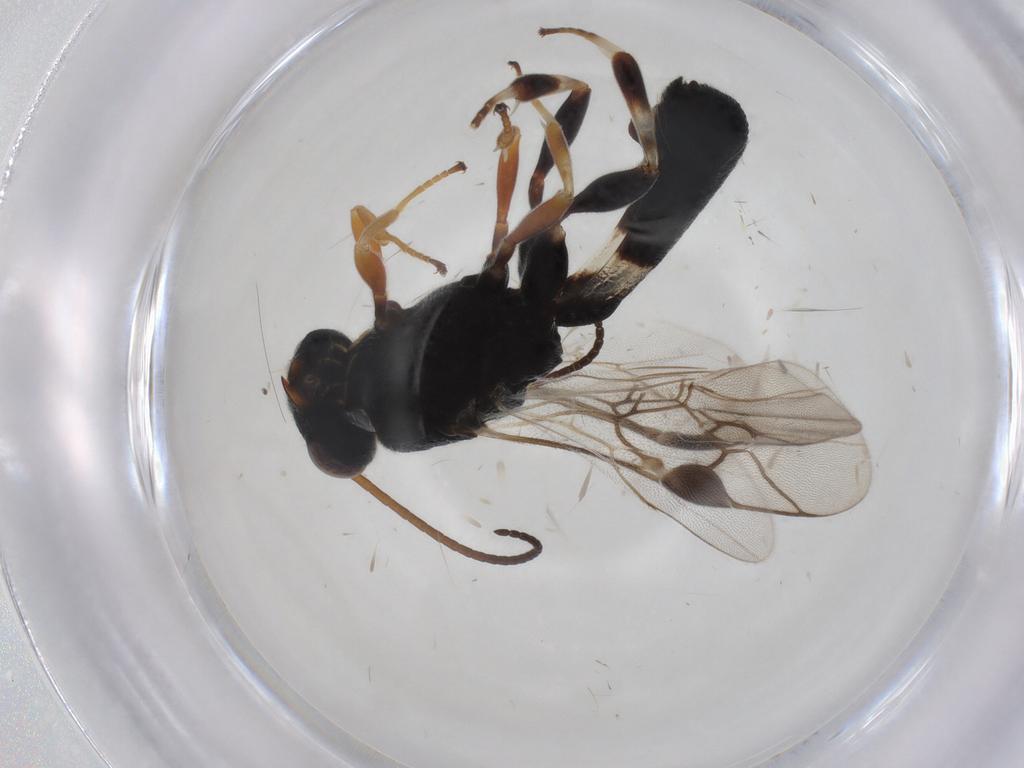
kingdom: Animalia
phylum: Arthropoda
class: Insecta
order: Hymenoptera
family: Braconidae
